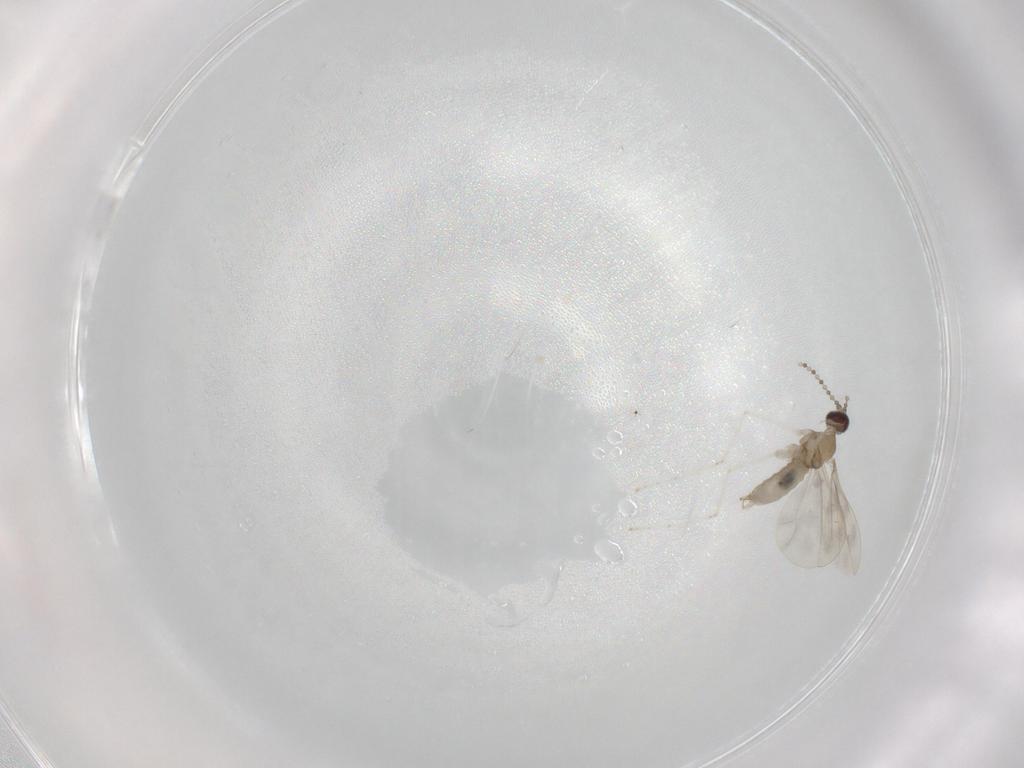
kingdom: Animalia
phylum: Arthropoda
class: Insecta
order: Diptera
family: Cecidomyiidae
